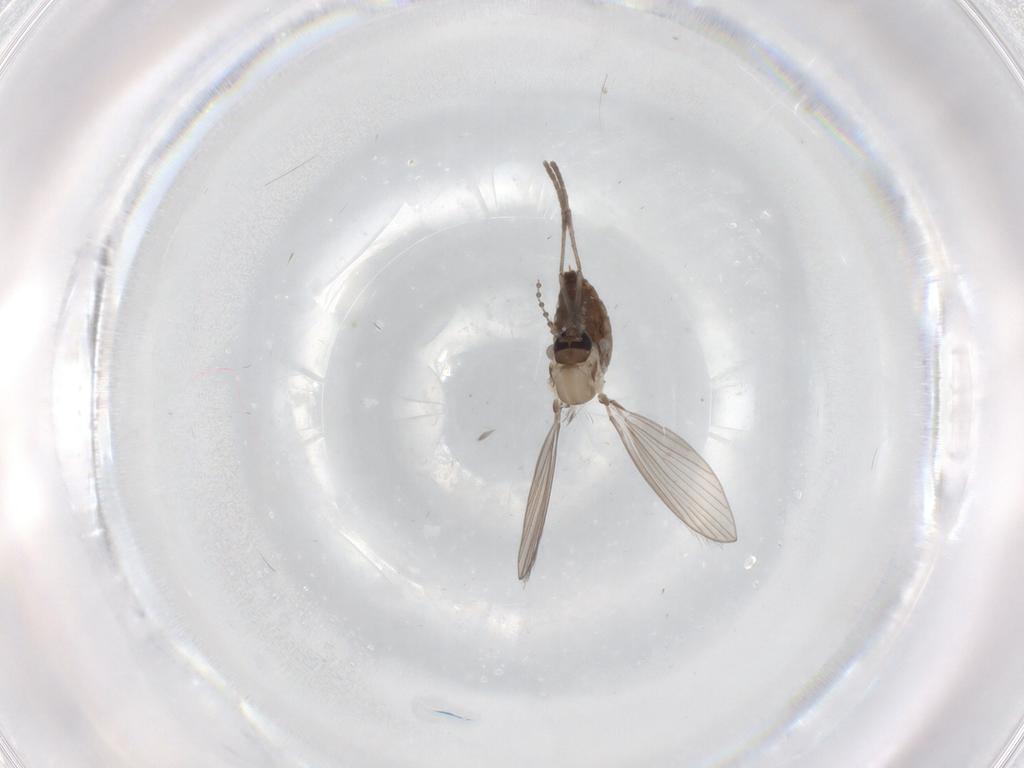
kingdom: Animalia
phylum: Arthropoda
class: Insecta
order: Diptera
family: Psychodidae
